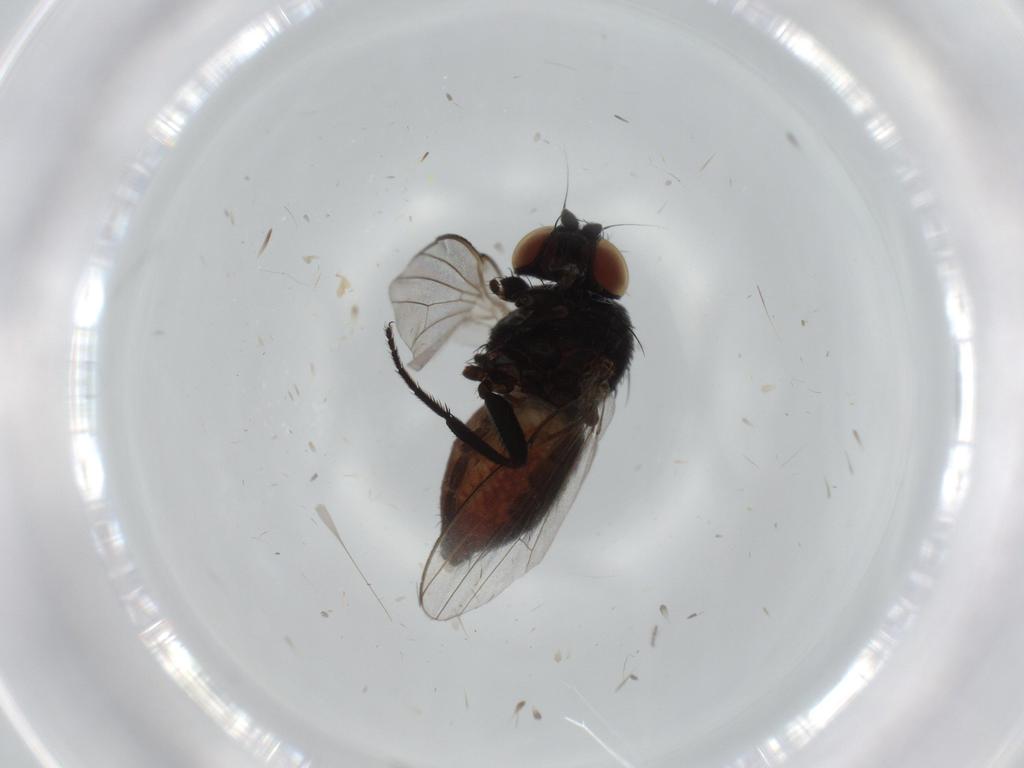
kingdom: Animalia
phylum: Arthropoda
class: Insecta
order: Diptera
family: Milichiidae
